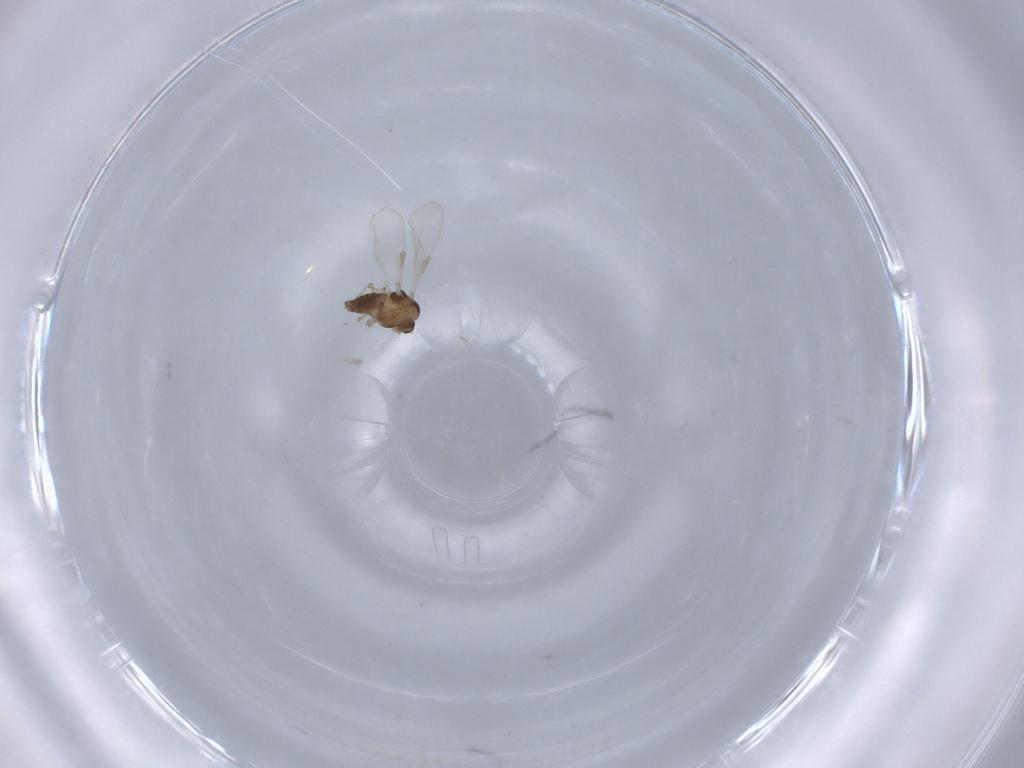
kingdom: Animalia
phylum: Arthropoda
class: Insecta
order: Diptera
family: Chironomidae
